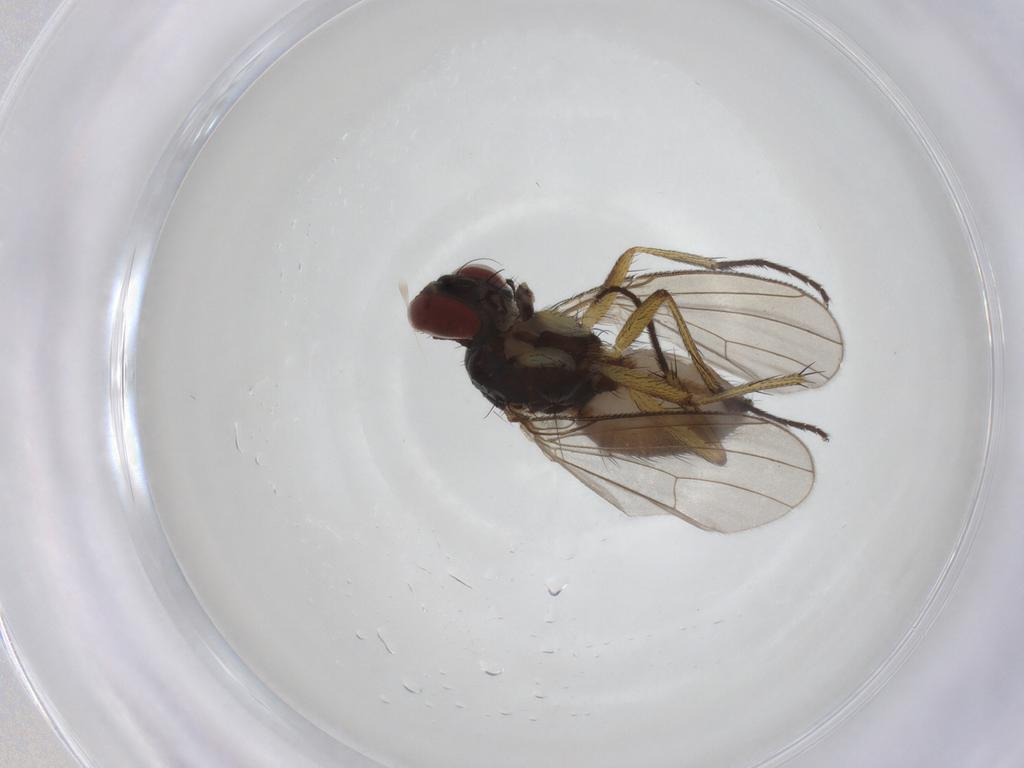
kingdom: Animalia
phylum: Arthropoda
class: Insecta
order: Diptera
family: Muscidae
